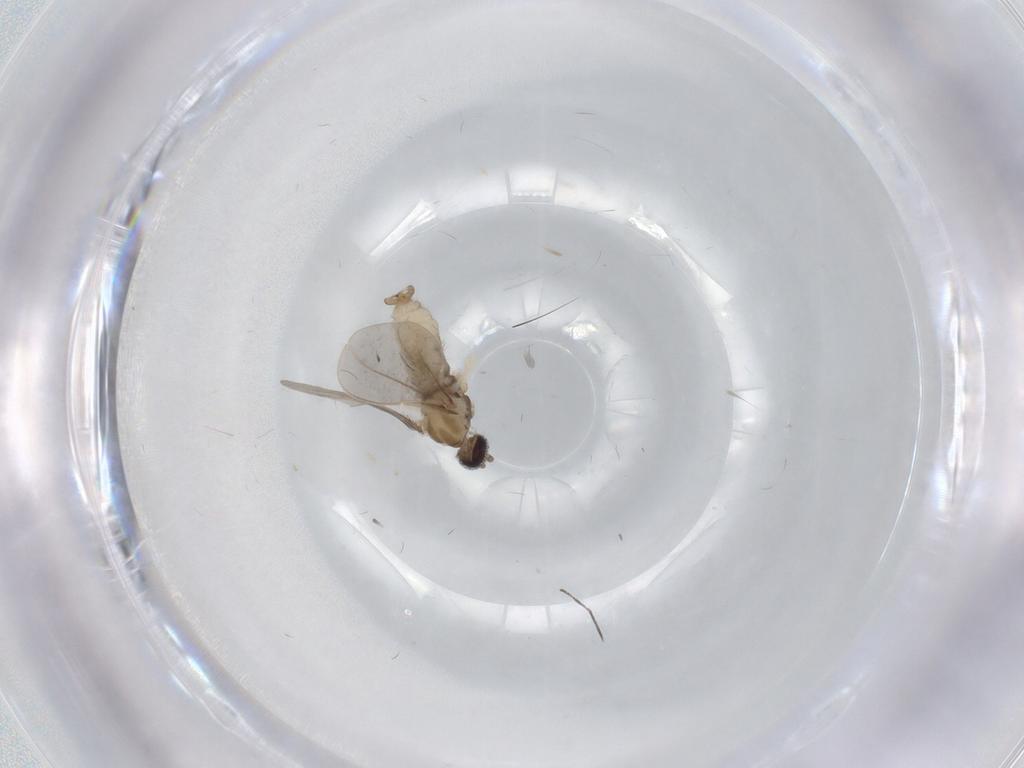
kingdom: Animalia
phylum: Arthropoda
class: Insecta
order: Diptera
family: Cecidomyiidae
